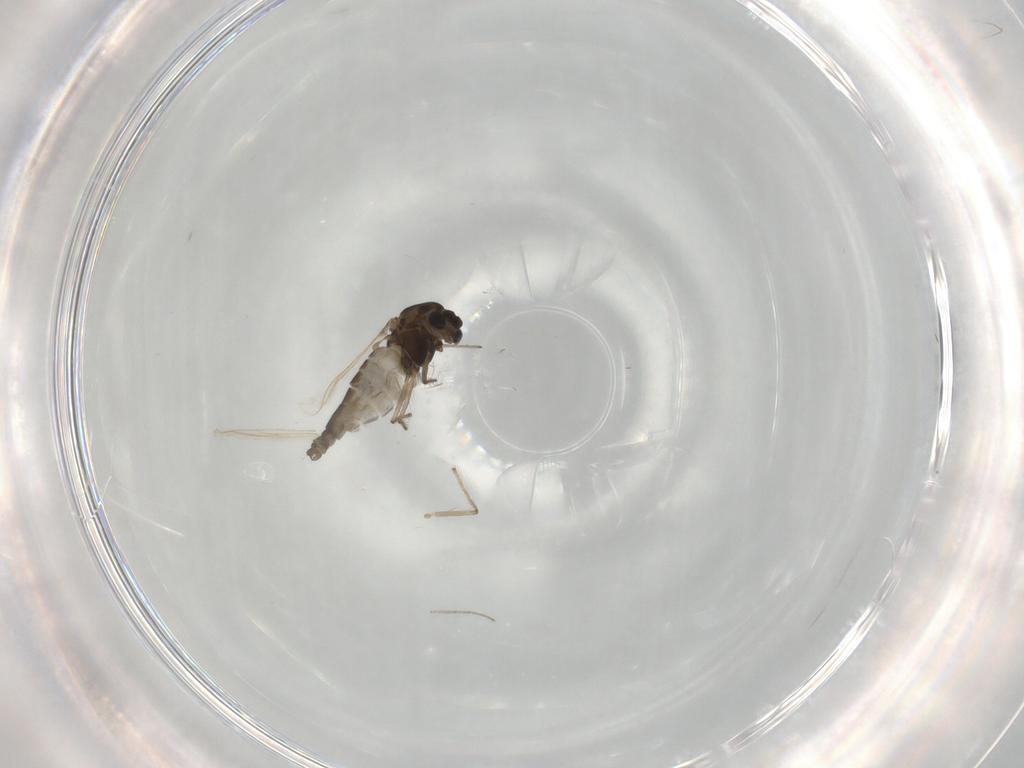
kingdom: Animalia
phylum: Arthropoda
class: Insecta
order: Diptera
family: Chironomidae
